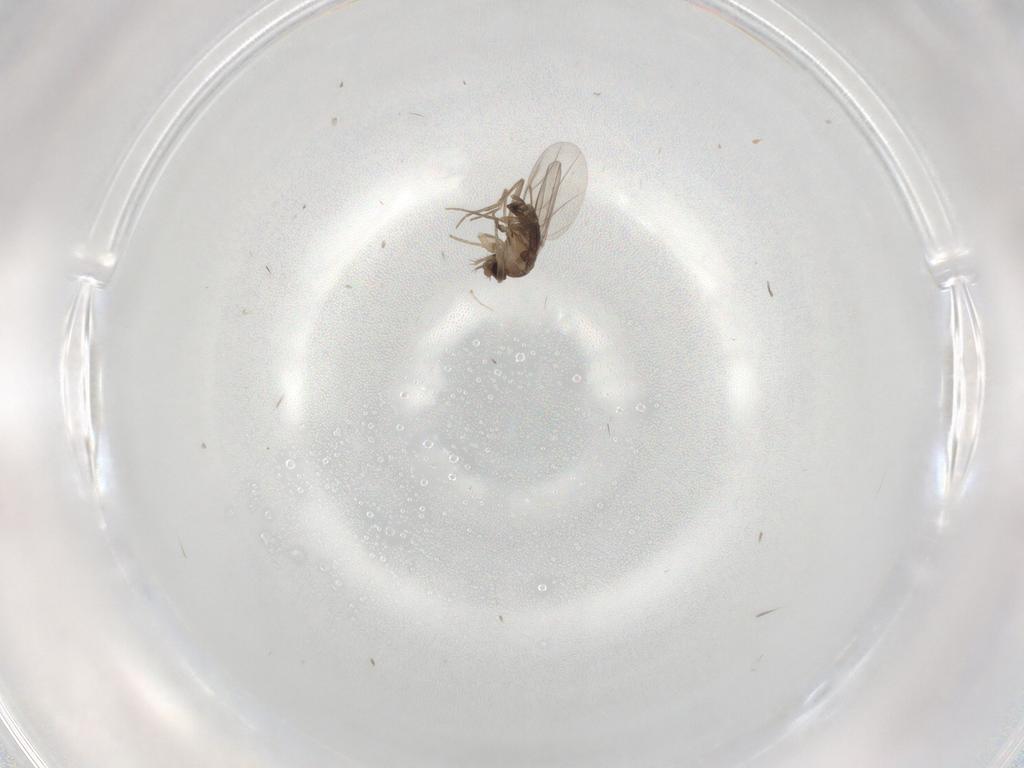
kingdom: Animalia
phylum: Arthropoda
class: Insecta
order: Diptera
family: Phoridae
